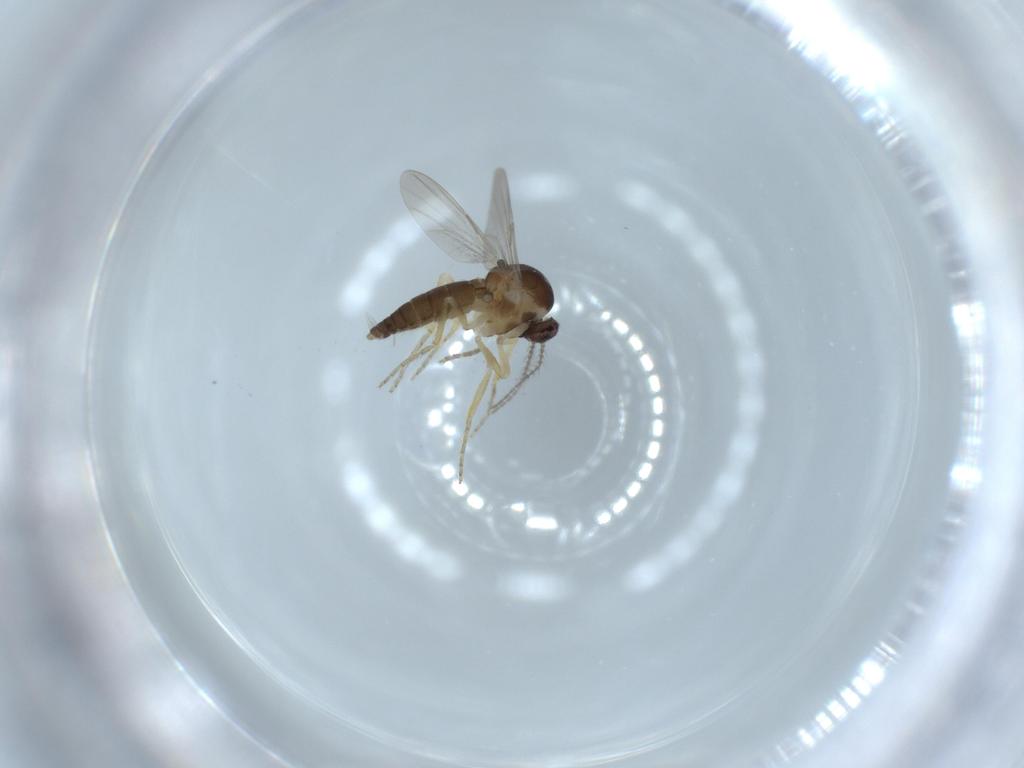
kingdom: Animalia
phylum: Arthropoda
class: Insecta
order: Diptera
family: Ceratopogonidae
